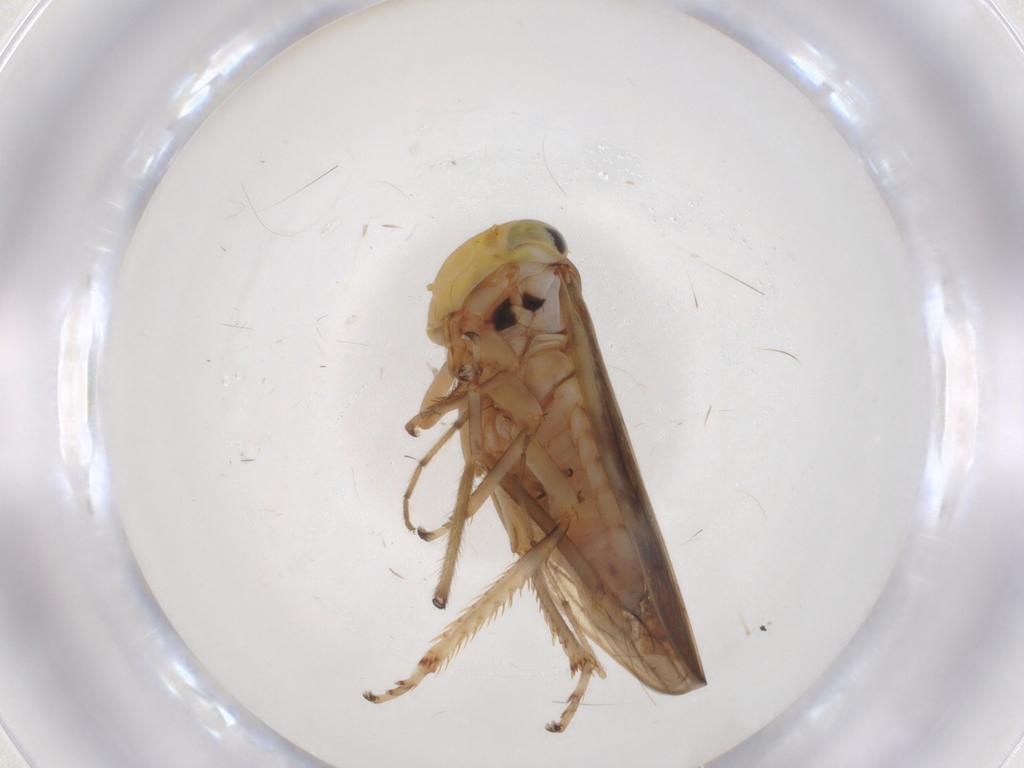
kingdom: Animalia
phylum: Arthropoda
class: Insecta
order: Hemiptera
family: Cicadellidae
